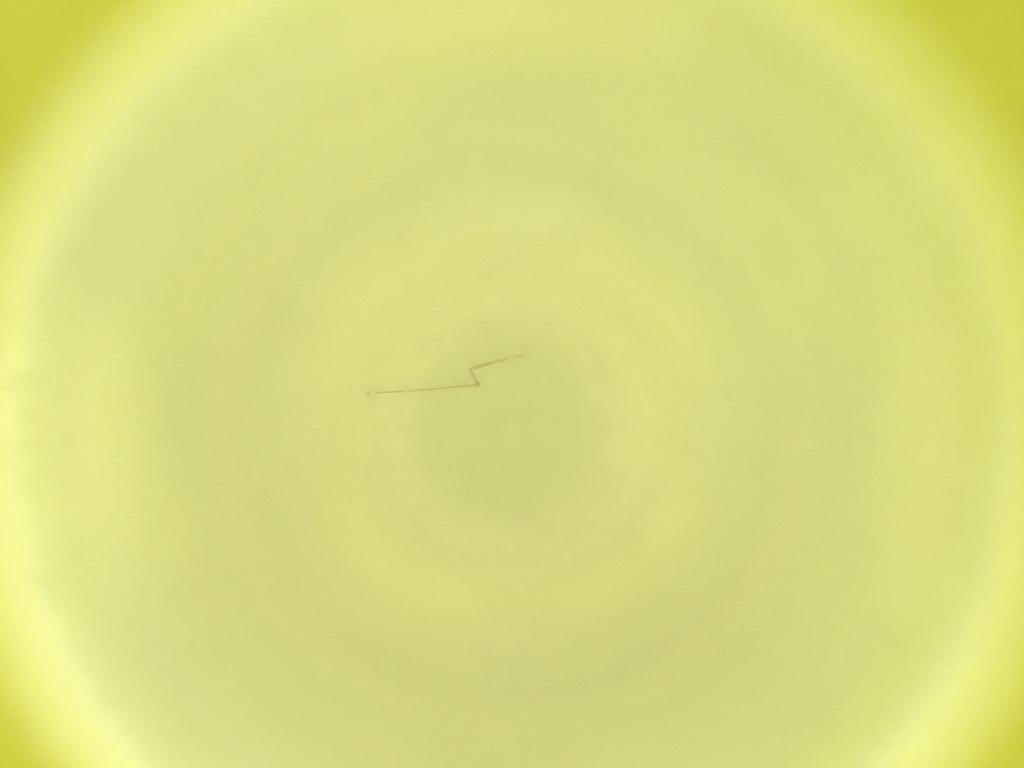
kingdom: Animalia
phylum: Arthropoda
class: Insecta
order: Diptera
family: Cecidomyiidae
